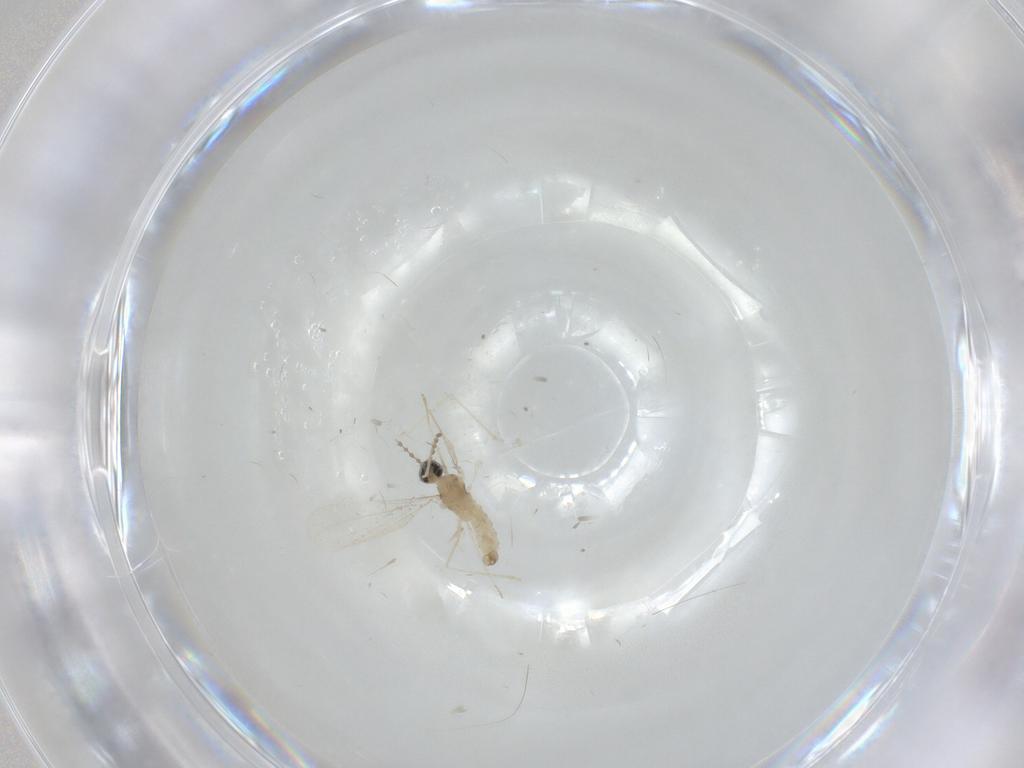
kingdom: Animalia
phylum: Arthropoda
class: Insecta
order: Diptera
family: Cecidomyiidae
